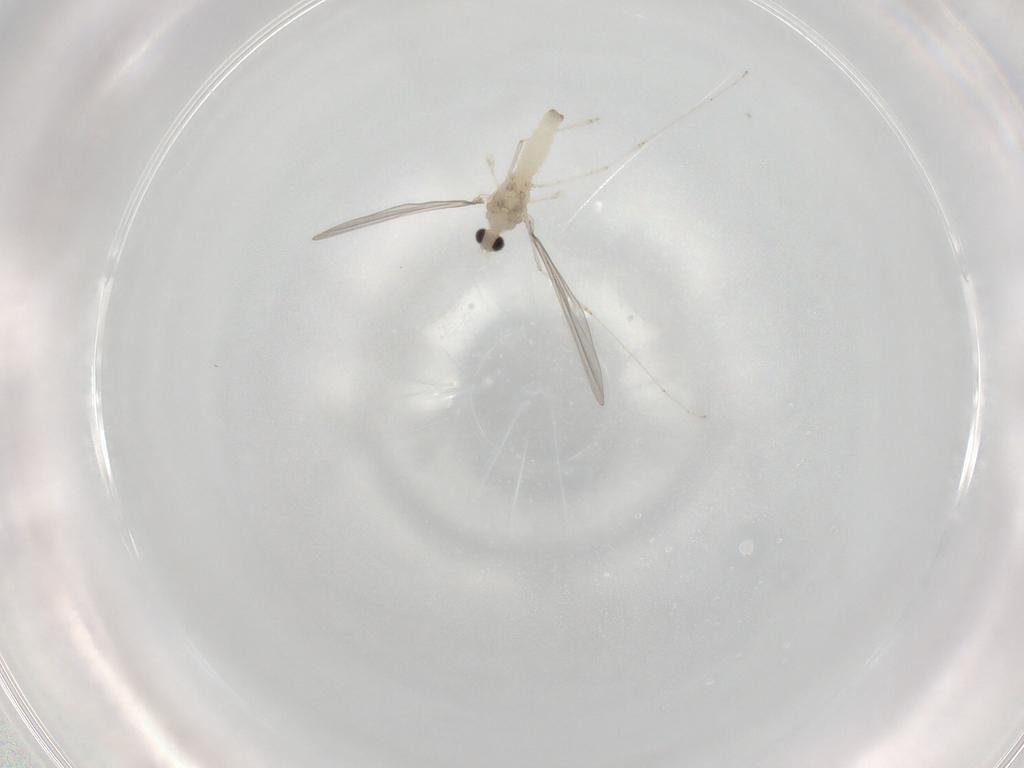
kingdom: Animalia
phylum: Arthropoda
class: Insecta
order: Diptera
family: Cecidomyiidae
